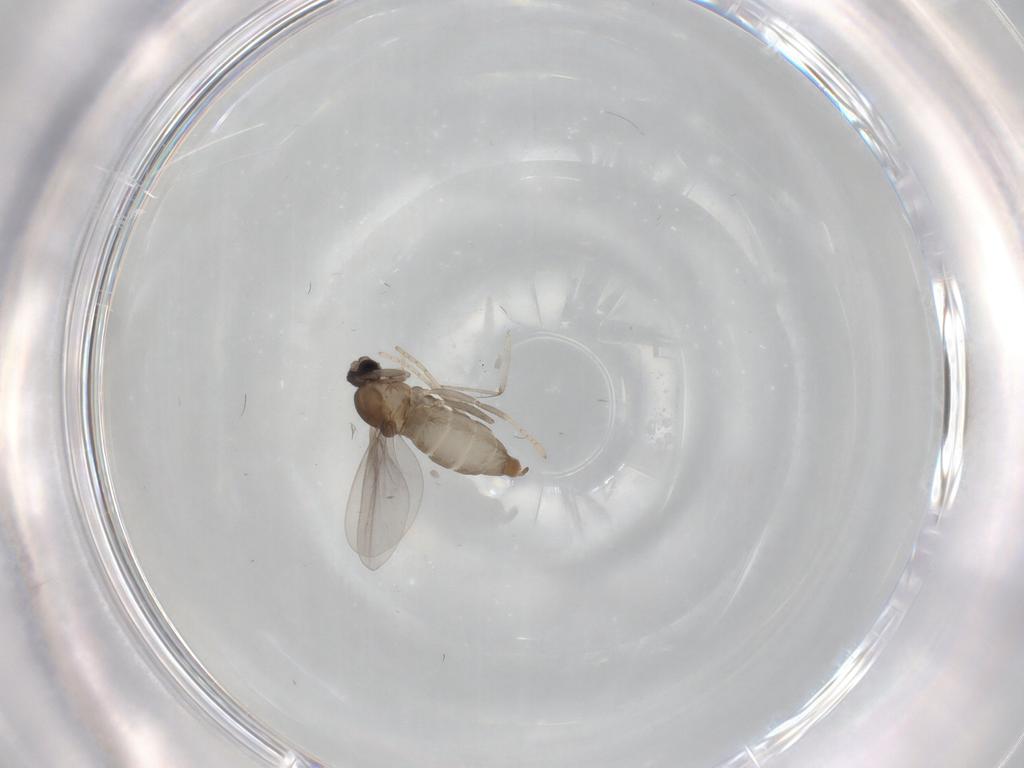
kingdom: Animalia
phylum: Arthropoda
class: Insecta
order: Diptera
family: Cecidomyiidae
